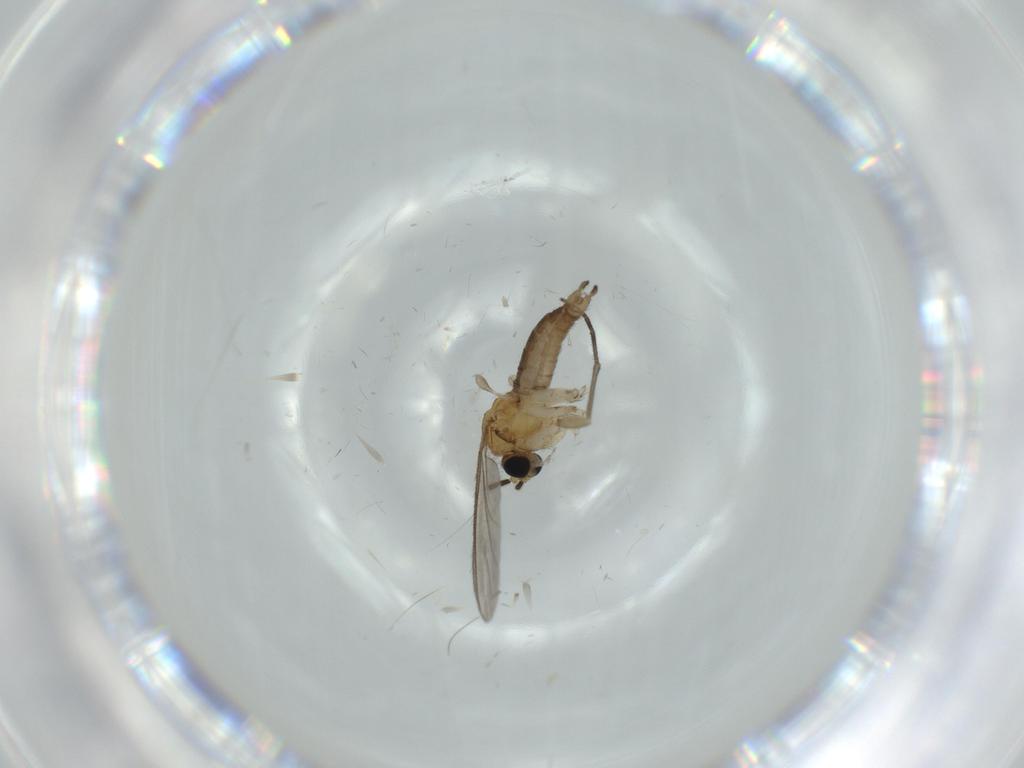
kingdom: Animalia
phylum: Arthropoda
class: Insecta
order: Diptera
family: Sciaridae
